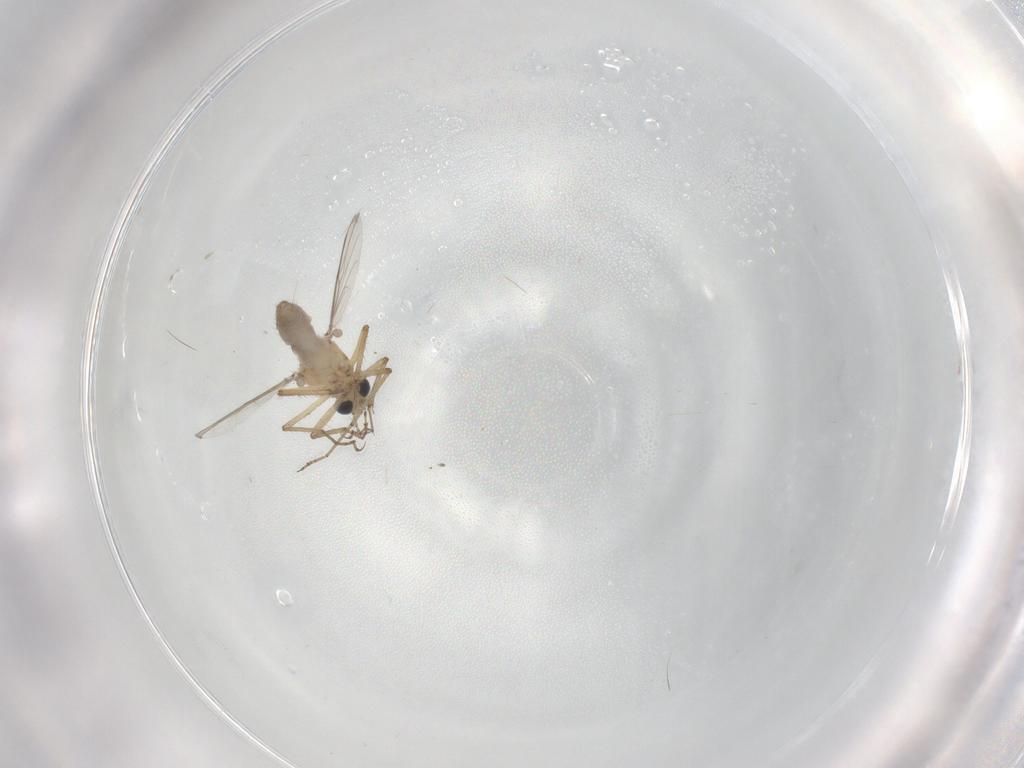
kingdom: Animalia
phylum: Arthropoda
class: Insecta
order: Diptera
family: Ceratopogonidae
